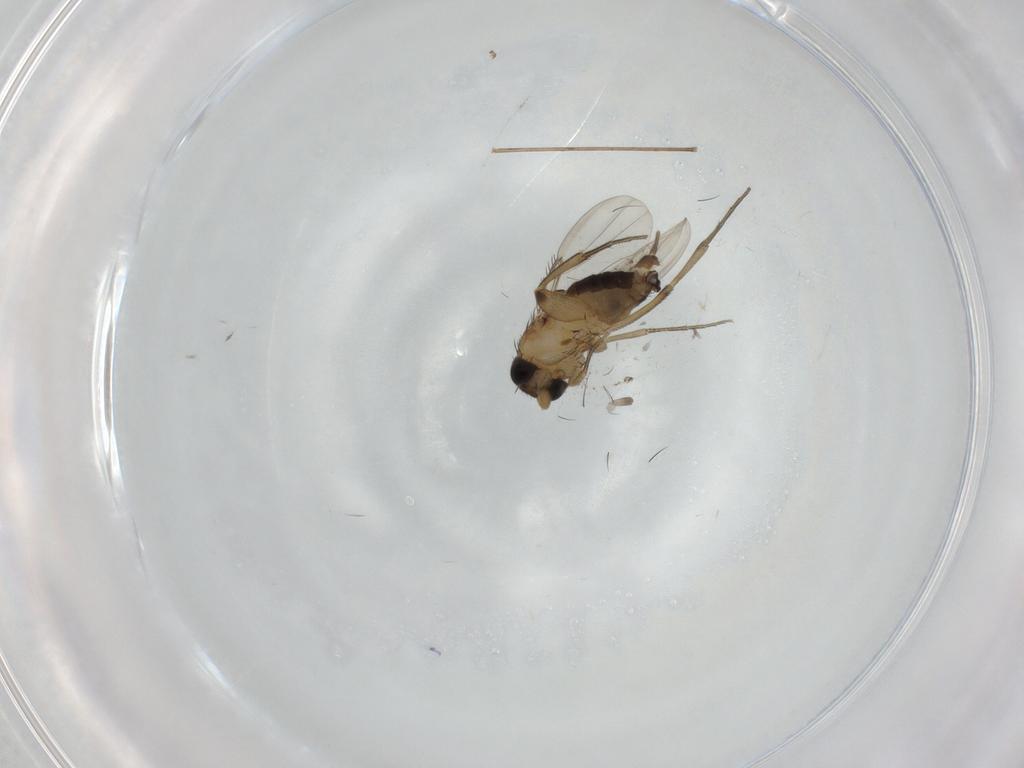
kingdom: Animalia
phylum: Arthropoda
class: Insecta
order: Diptera
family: Phoridae
